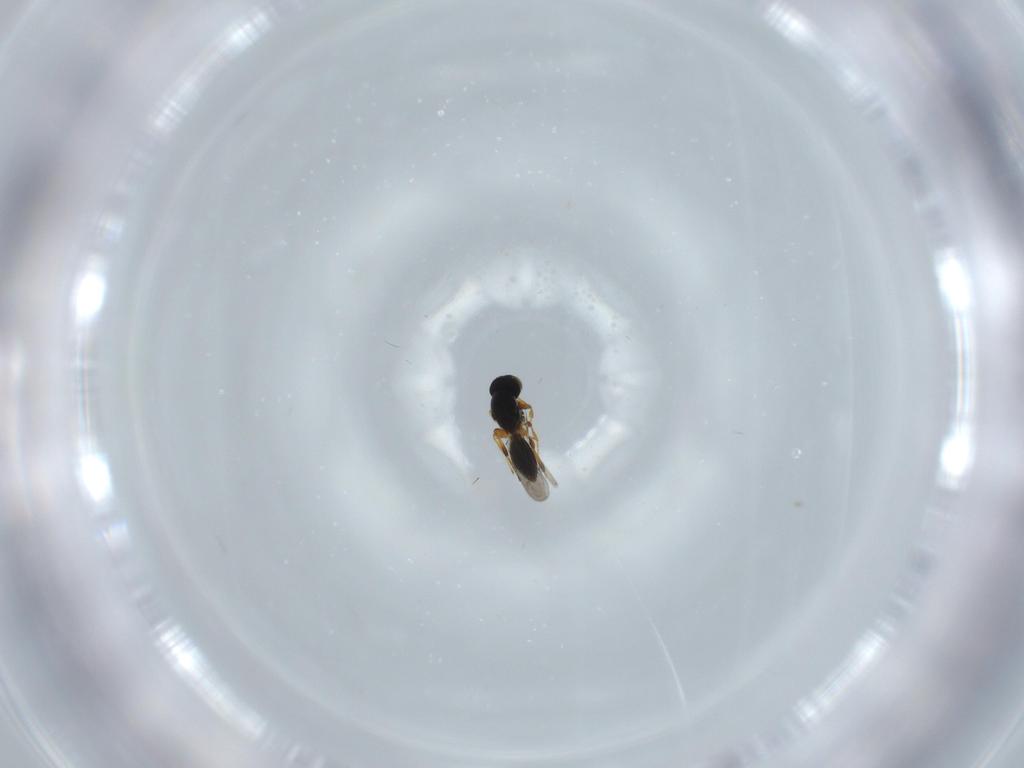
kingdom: Animalia
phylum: Arthropoda
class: Insecta
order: Hymenoptera
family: Platygastridae
